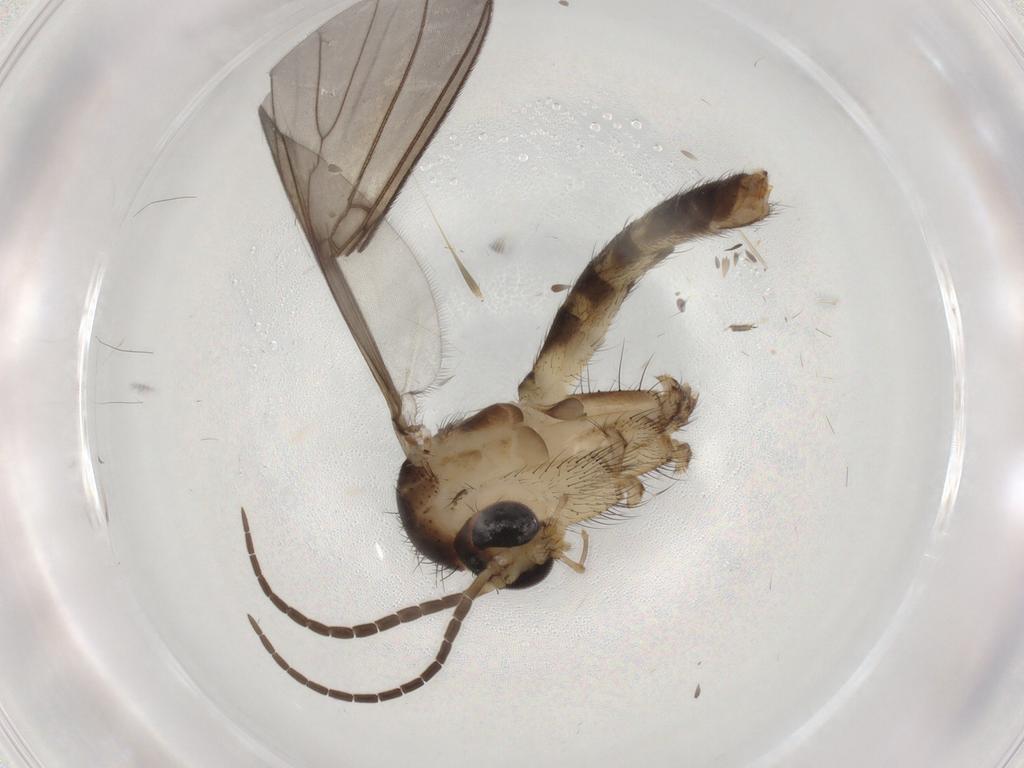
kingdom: Animalia
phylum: Arthropoda
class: Insecta
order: Diptera
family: Mycetophilidae
